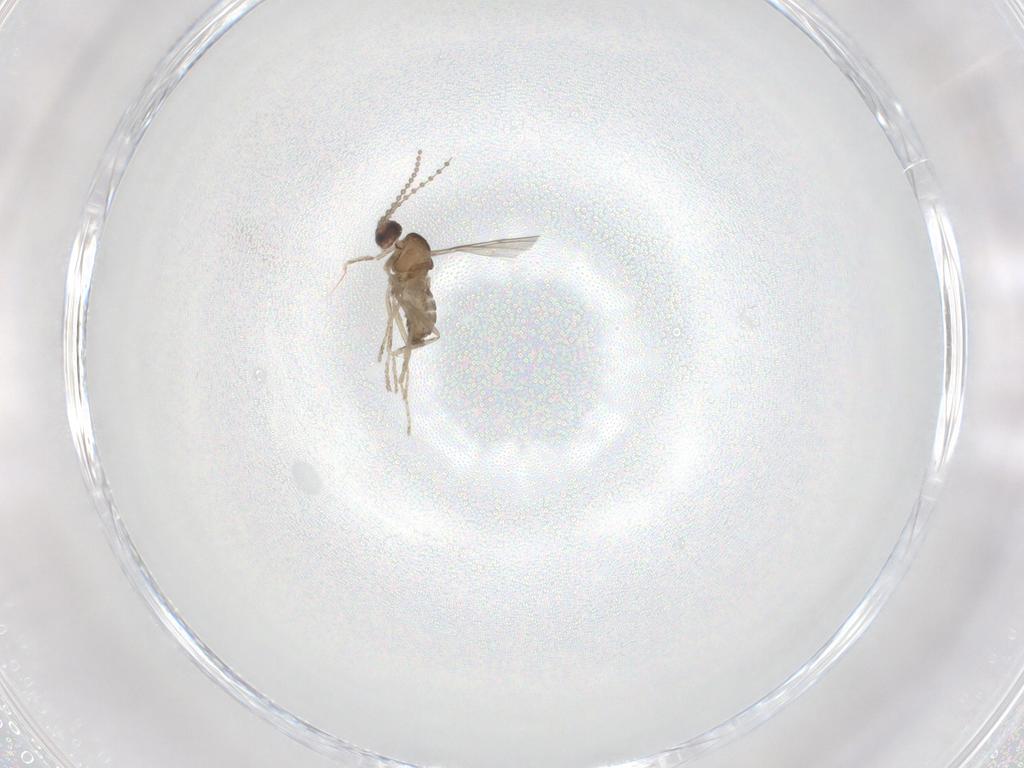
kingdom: Animalia
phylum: Arthropoda
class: Insecta
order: Diptera
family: Cecidomyiidae
